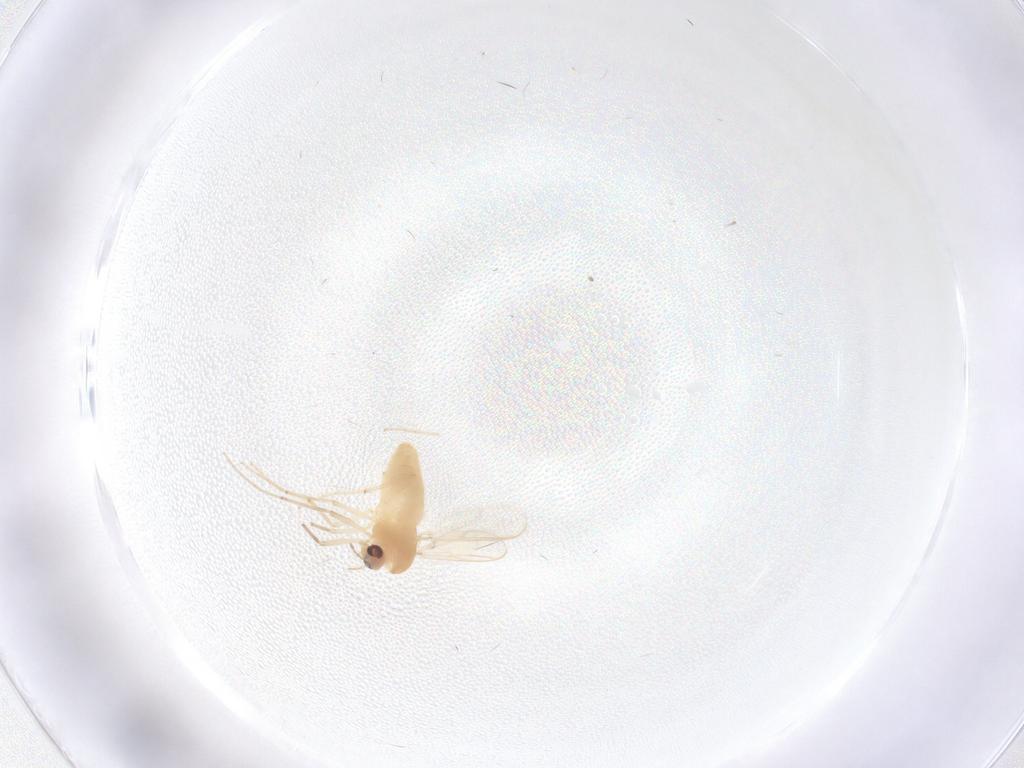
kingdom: Animalia
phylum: Arthropoda
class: Insecta
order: Diptera
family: Chironomidae
